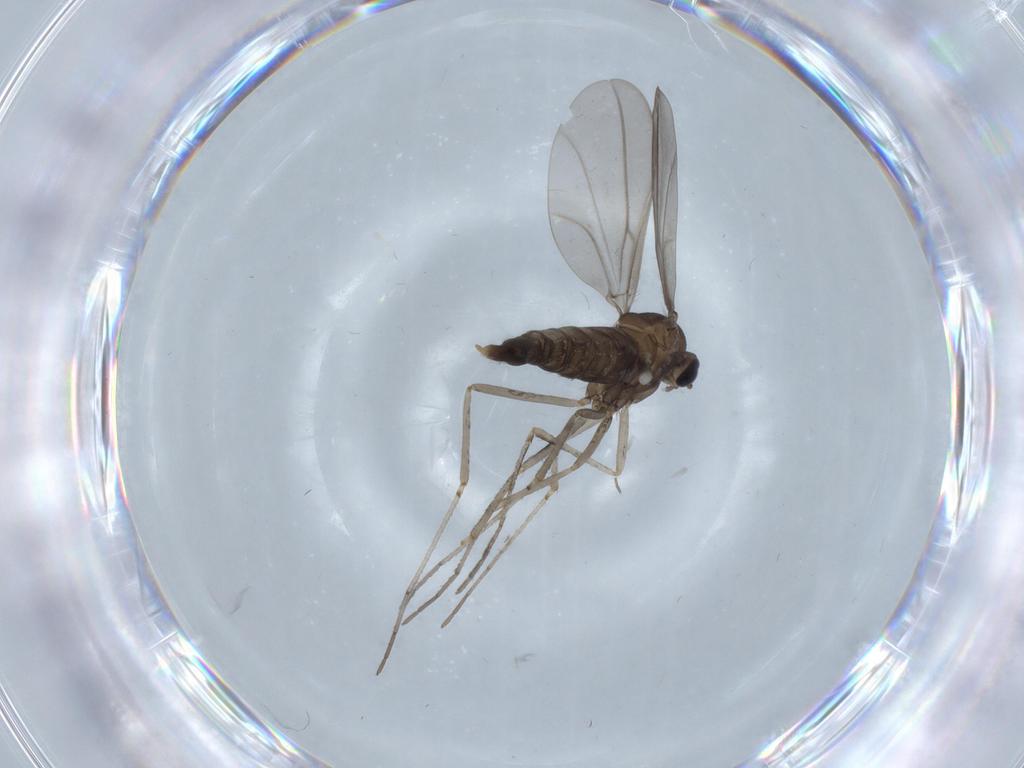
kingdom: Animalia
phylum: Arthropoda
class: Insecta
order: Diptera
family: Cecidomyiidae
